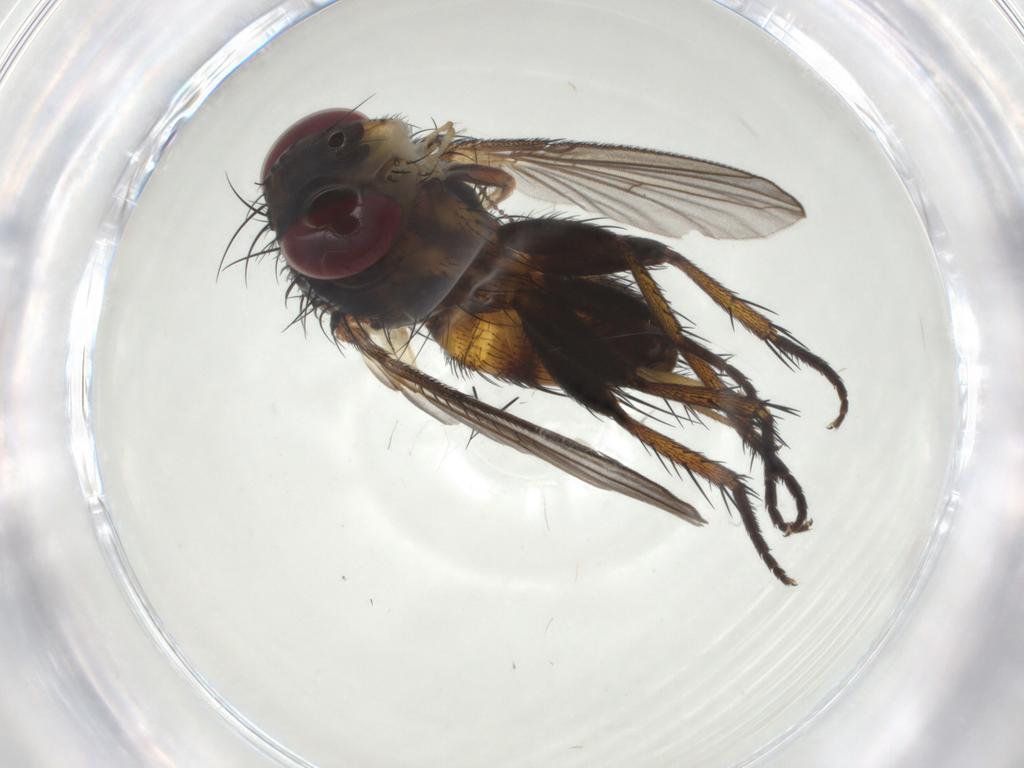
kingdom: Animalia
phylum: Arthropoda
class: Insecta
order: Diptera
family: Tachinidae
